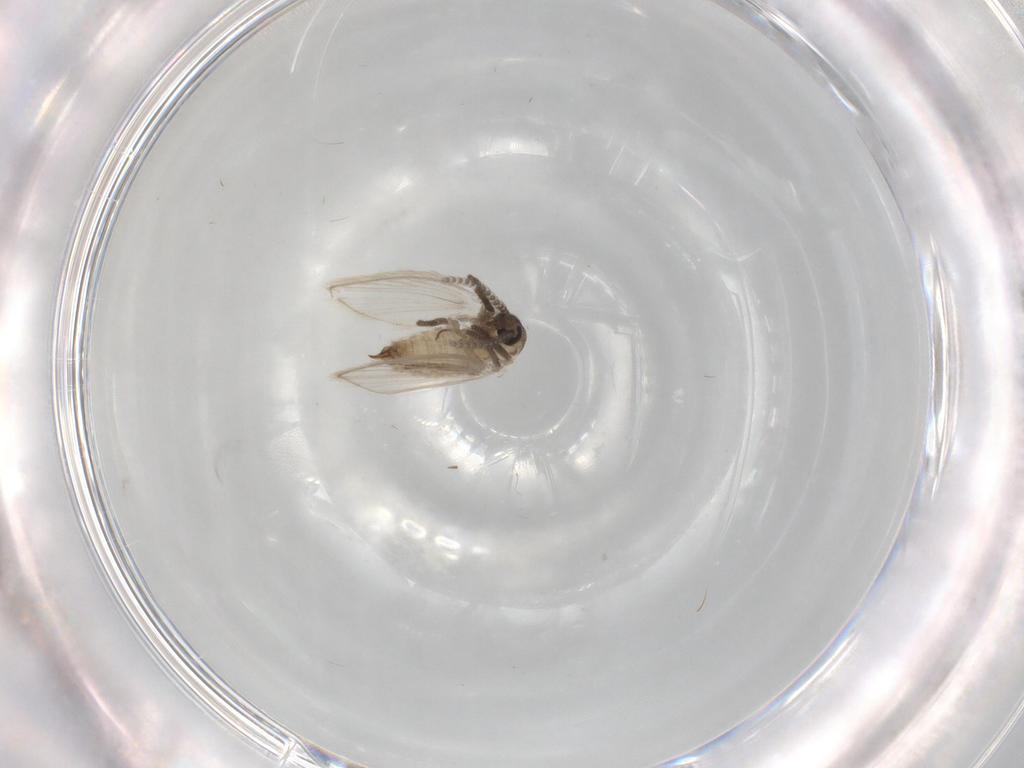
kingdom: Animalia
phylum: Arthropoda
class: Insecta
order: Diptera
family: Psychodidae
